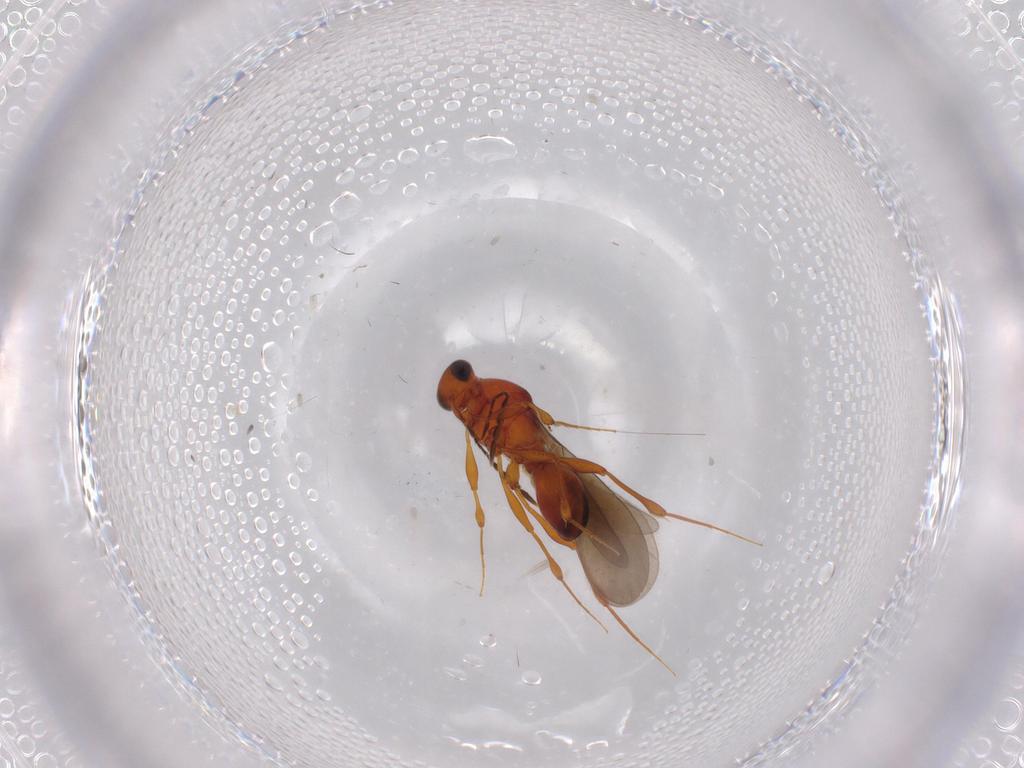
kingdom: Animalia
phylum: Arthropoda
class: Insecta
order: Hymenoptera
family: Platygastridae
